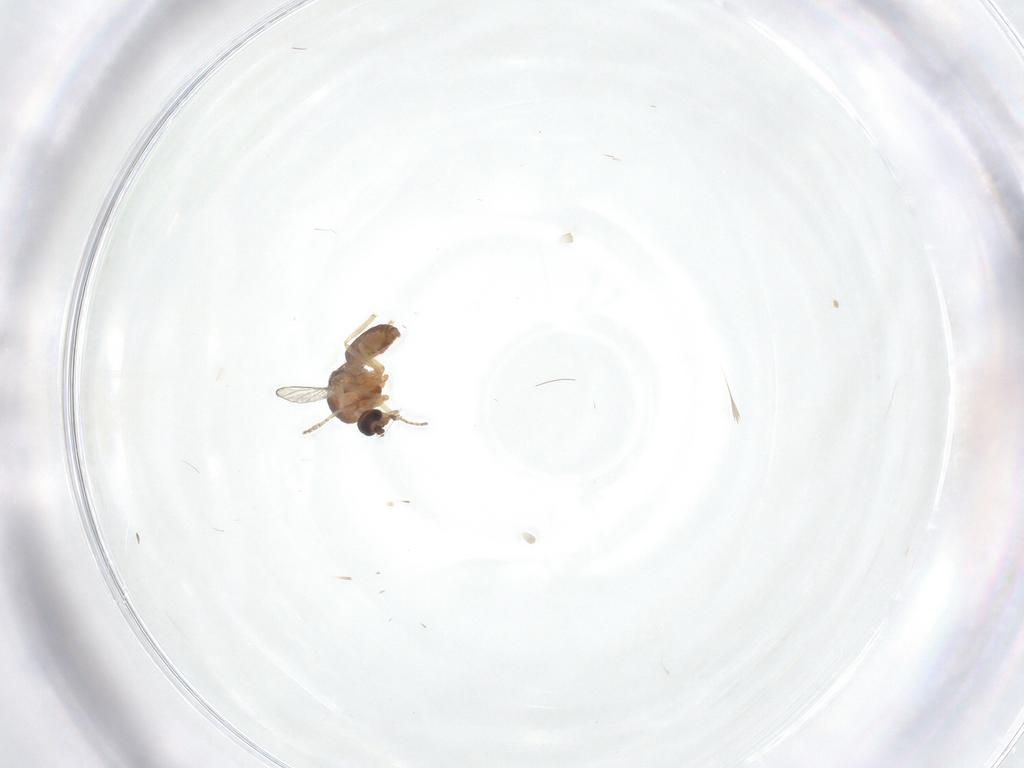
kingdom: Animalia
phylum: Arthropoda
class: Insecta
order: Diptera
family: Ceratopogonidae
